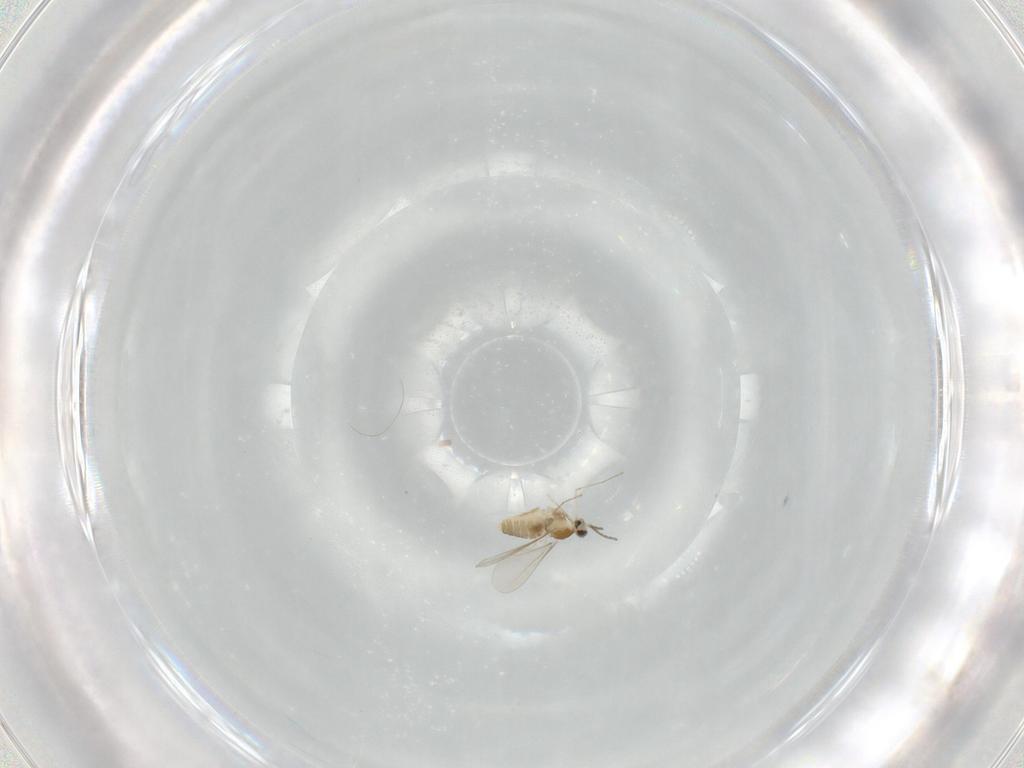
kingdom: Animalia
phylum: Arthropoda
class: Insecta
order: Diptera
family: Cecidomyiidae
